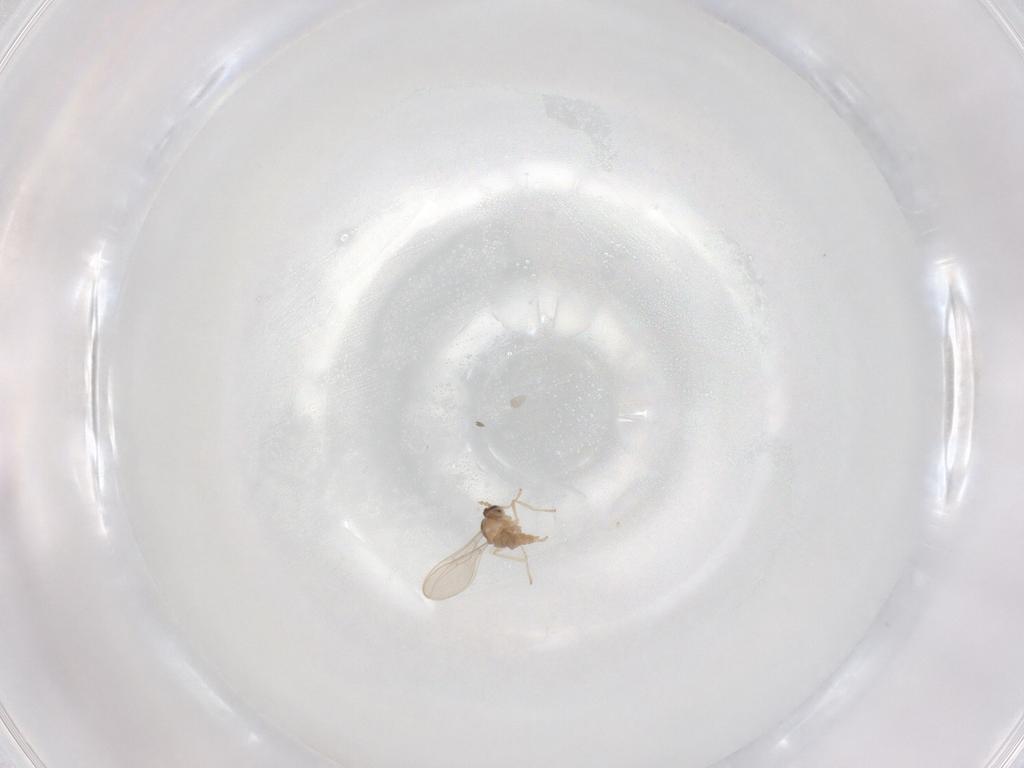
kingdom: Animalia
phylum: Arthropoda
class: Insecta
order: Diptera
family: Cecidomyiidae
